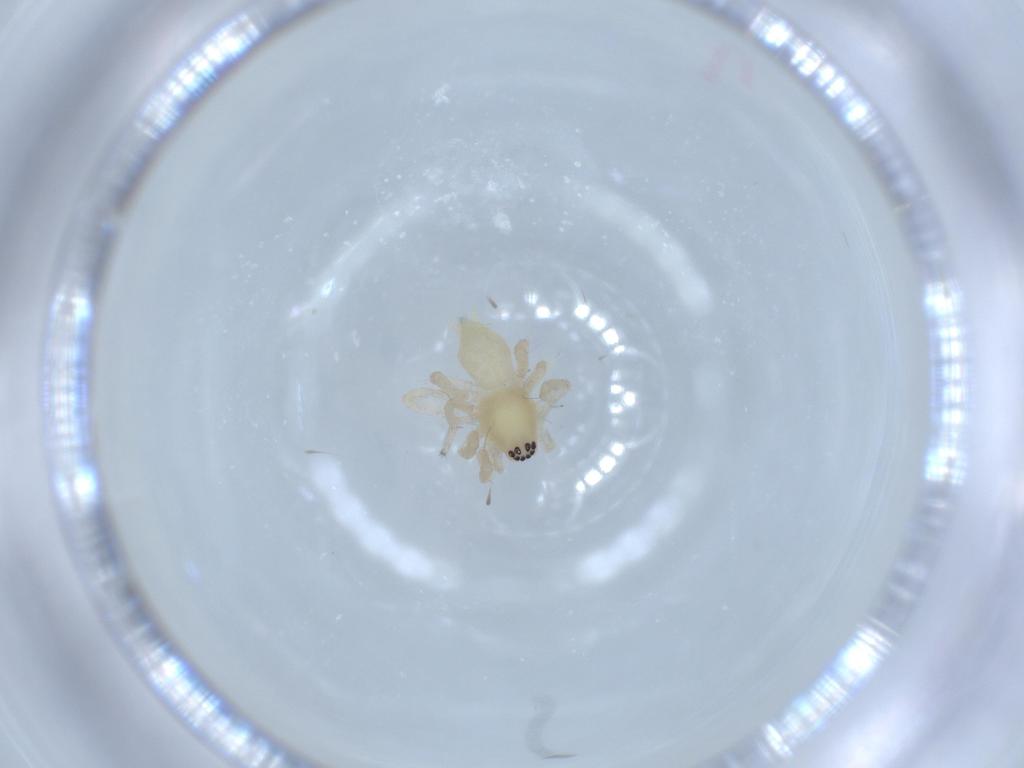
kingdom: Animalia
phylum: Arthropoda
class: Arachnida
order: Araneae
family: Anyphaenidae
